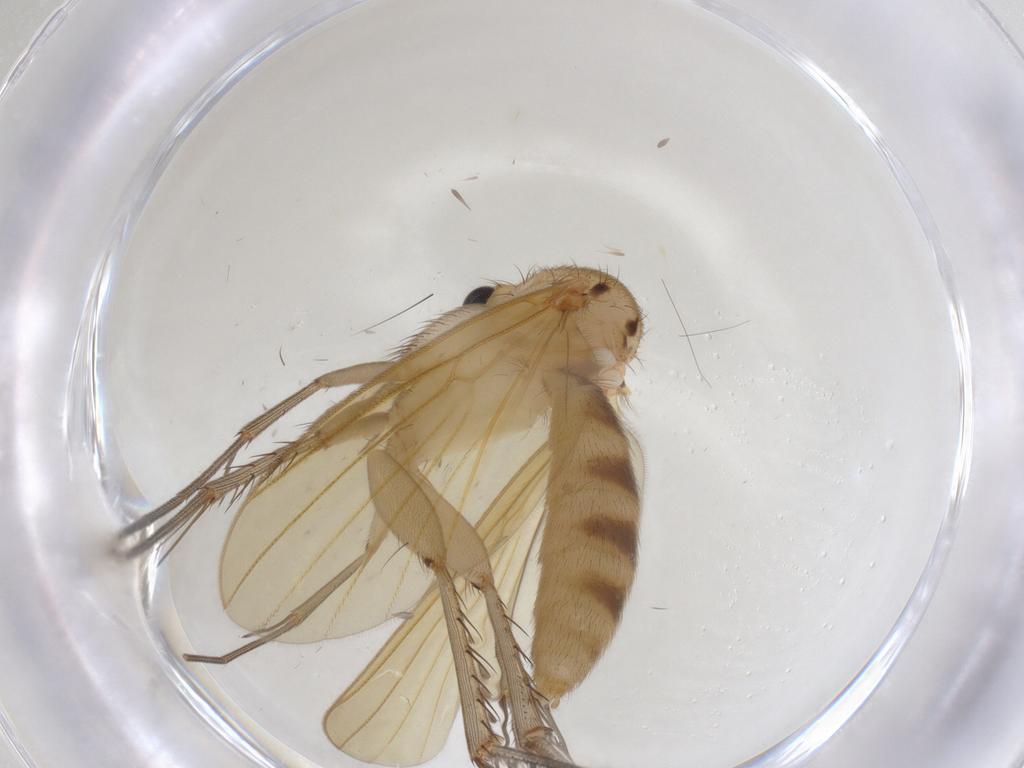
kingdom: Animalia
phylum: Arthropoda
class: Insecta
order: Diptera
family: Mycetophilidae
